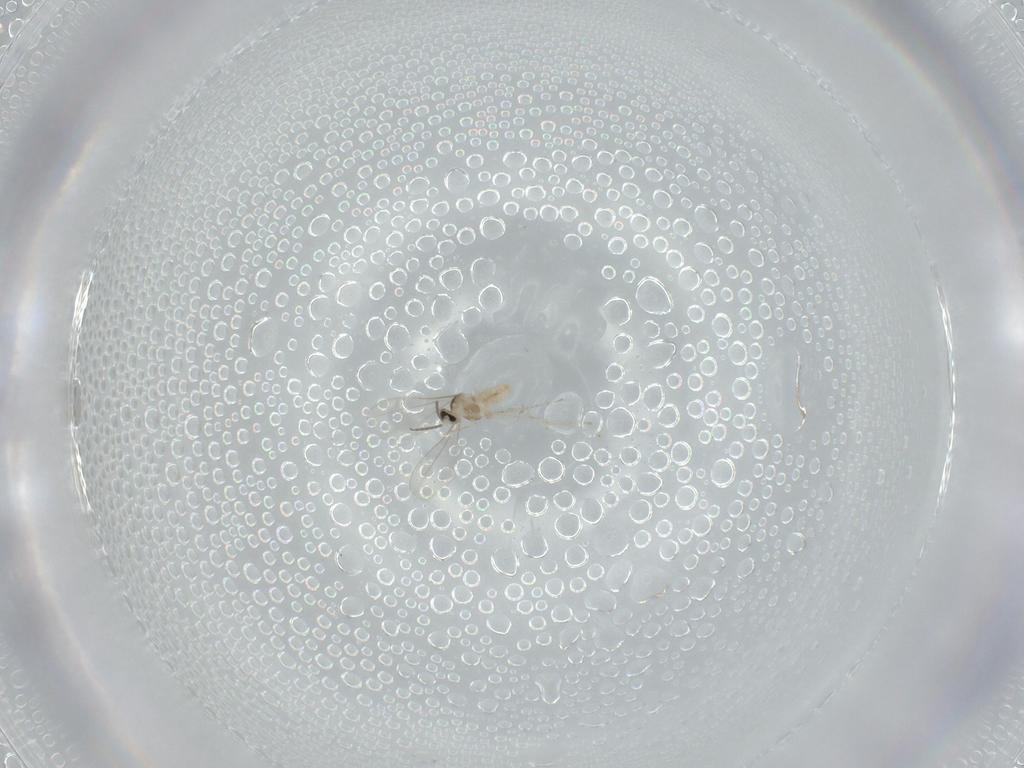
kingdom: Animalia
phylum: Arthropoda
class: Insecta
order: Diptera
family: Cecidomyiidae
